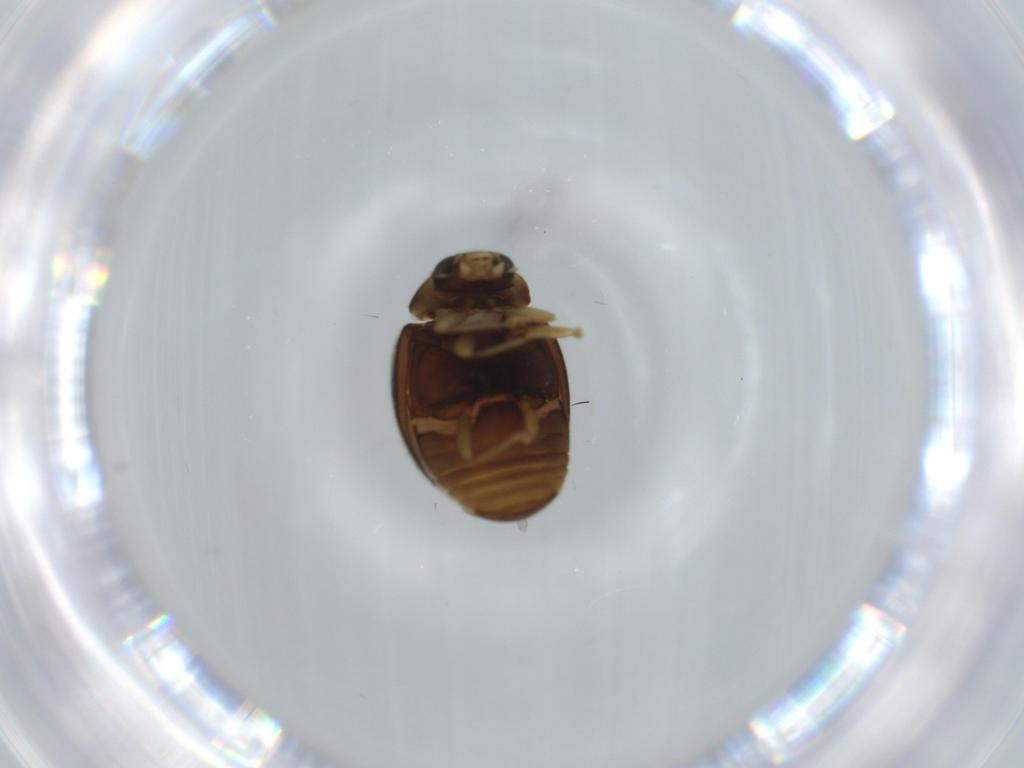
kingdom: Animalia
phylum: Arthropoda
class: Insecta
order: Coleoptera
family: Coccinellidae
